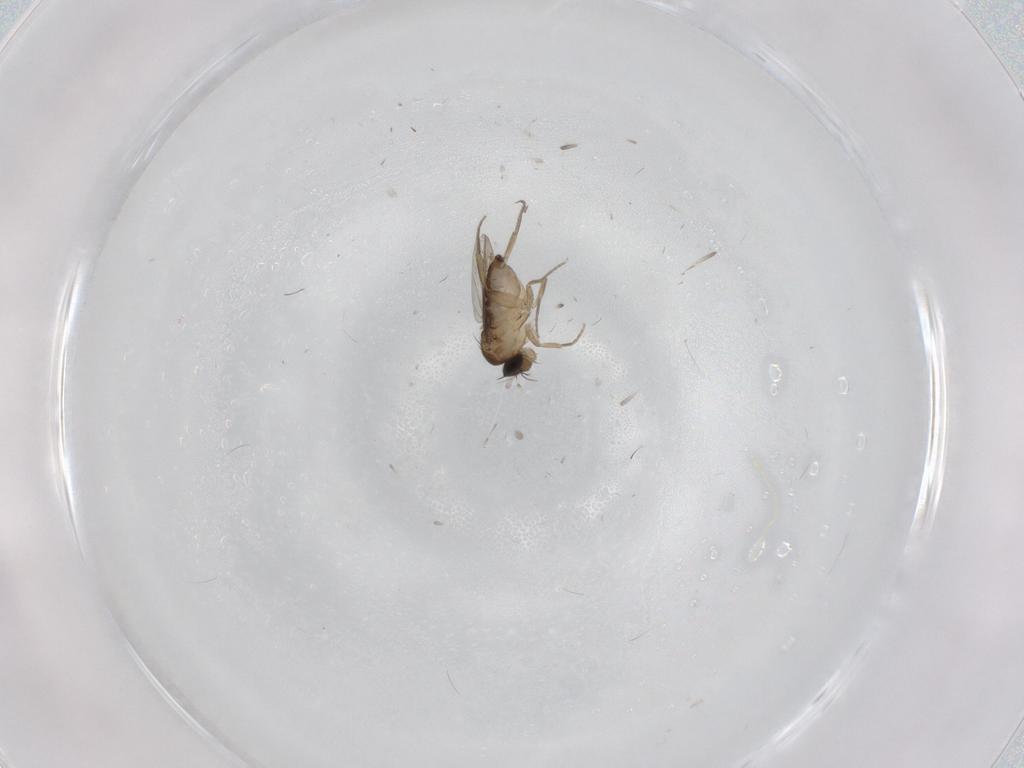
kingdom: Animalia
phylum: Arthropoda
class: Insecta
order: Diptera
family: Phoridae
